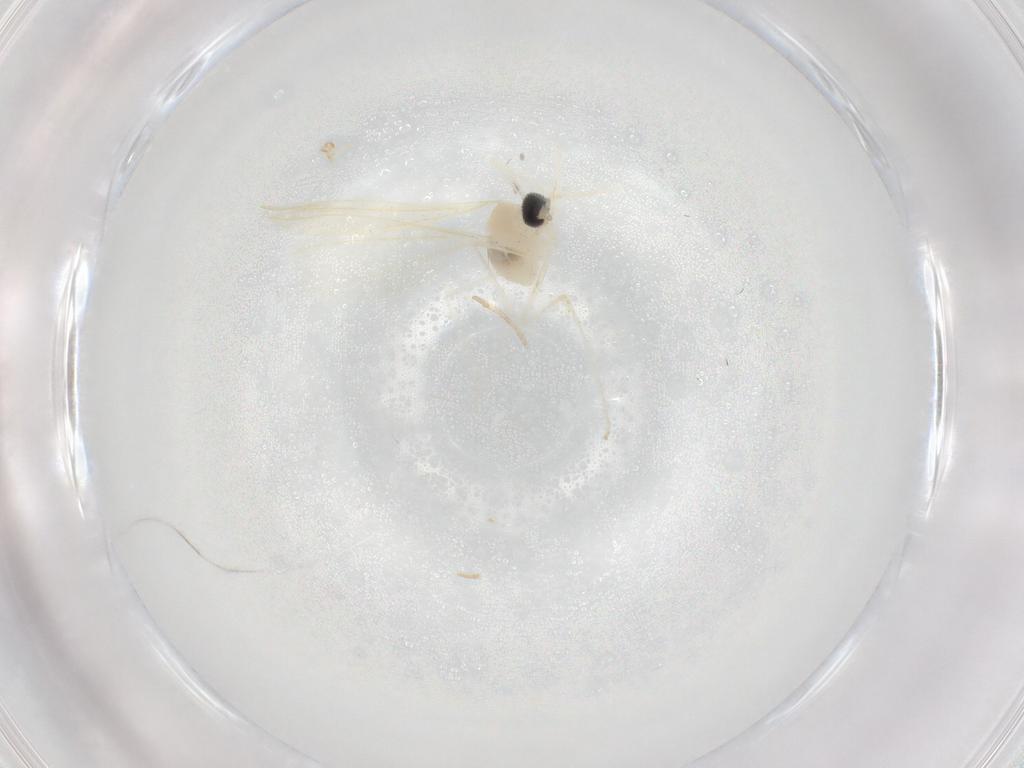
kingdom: Animalia
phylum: Arthropoda
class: Insecta
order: Diptera
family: Cecidomyiidae
